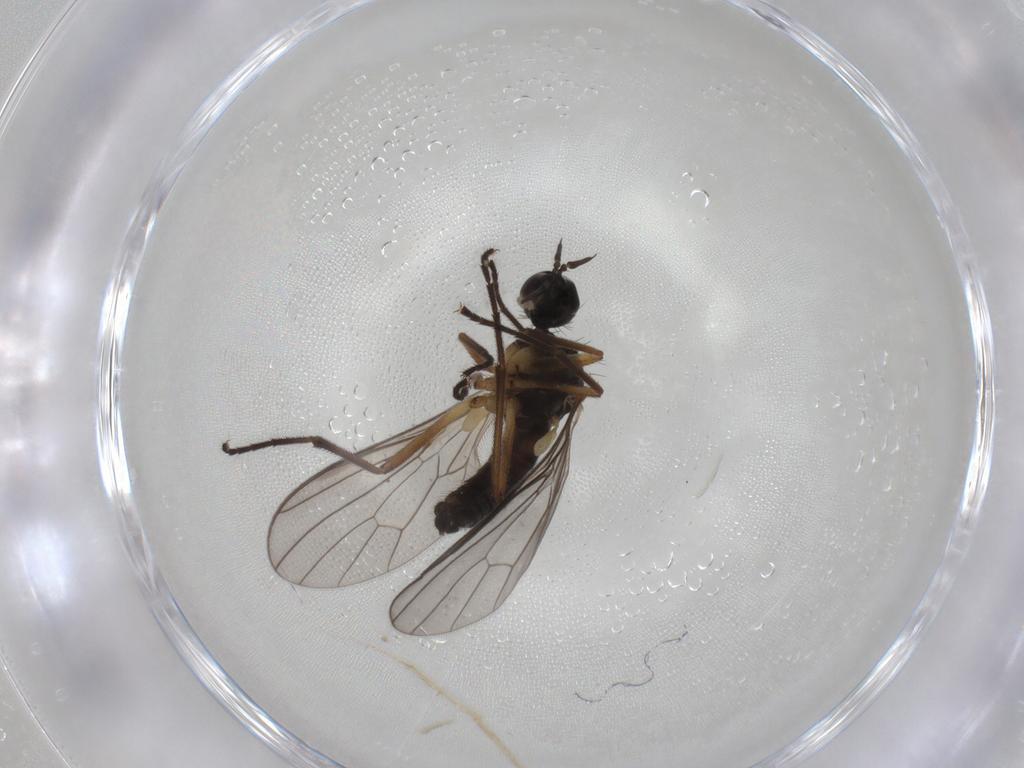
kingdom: Animalia
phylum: Arthropoda
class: Insecta
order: Diptera
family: Empididae
